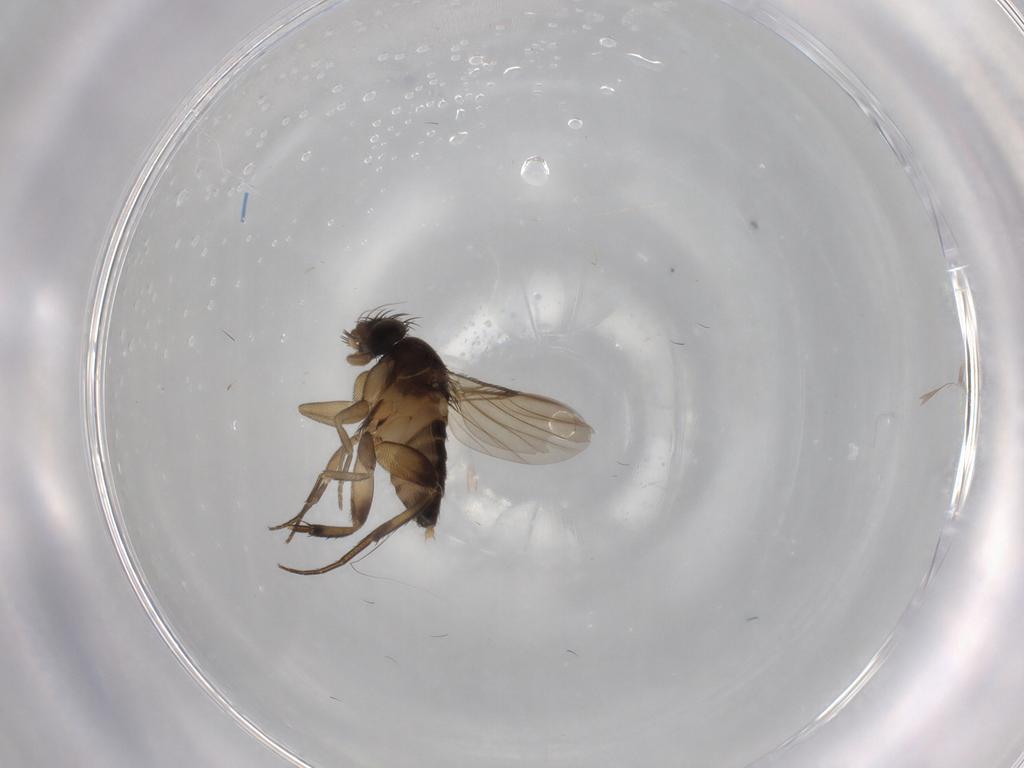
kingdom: Animalia
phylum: Arthropoda
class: Insecta
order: Diptera
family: Phoridae
